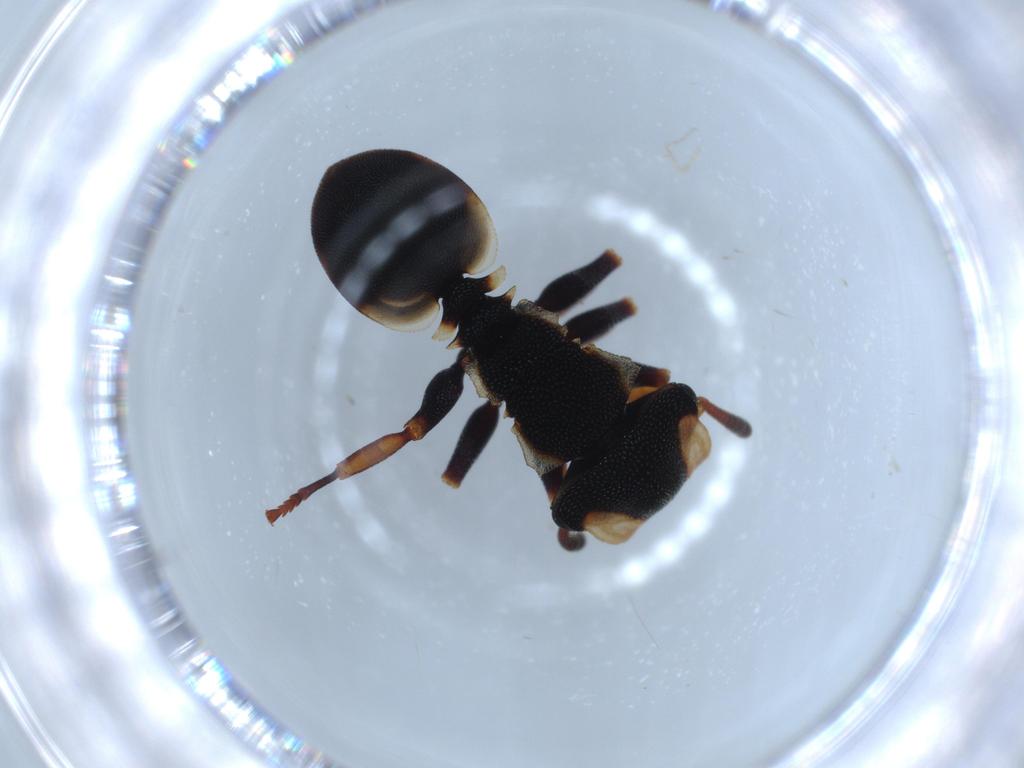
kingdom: Animalia
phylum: Arthropoda
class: Insecta
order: Hymenoptera
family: Formicidae
